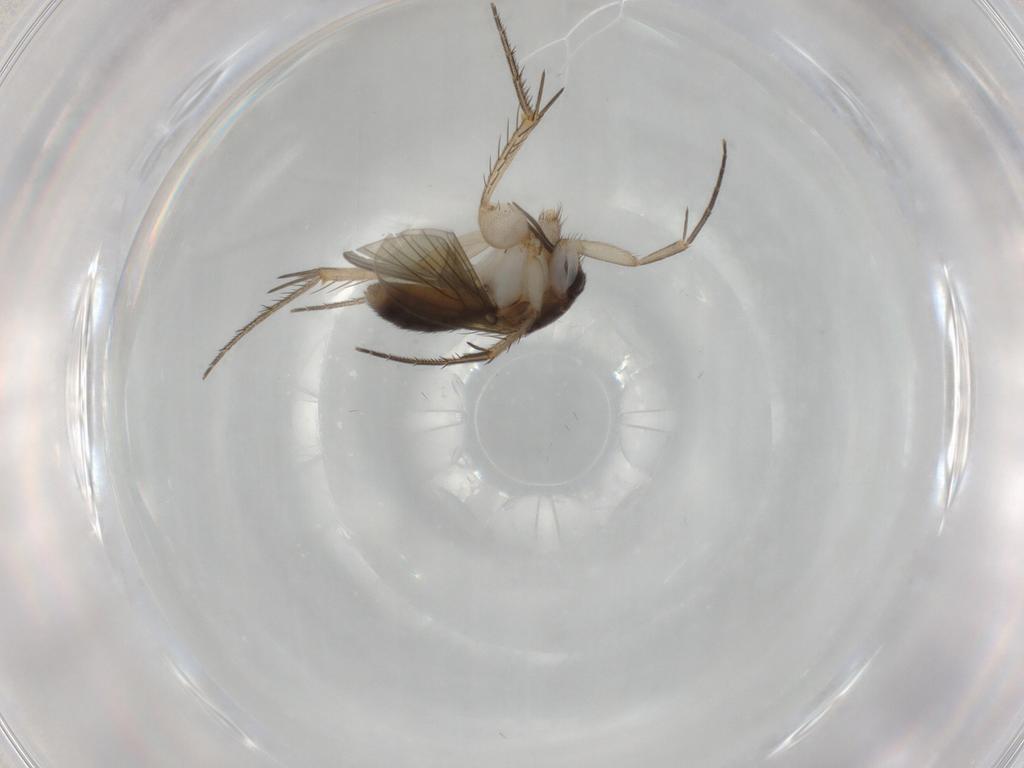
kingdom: Animalia
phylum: Arthropoda
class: Insecta
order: Diptera
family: Mycetophilidae
